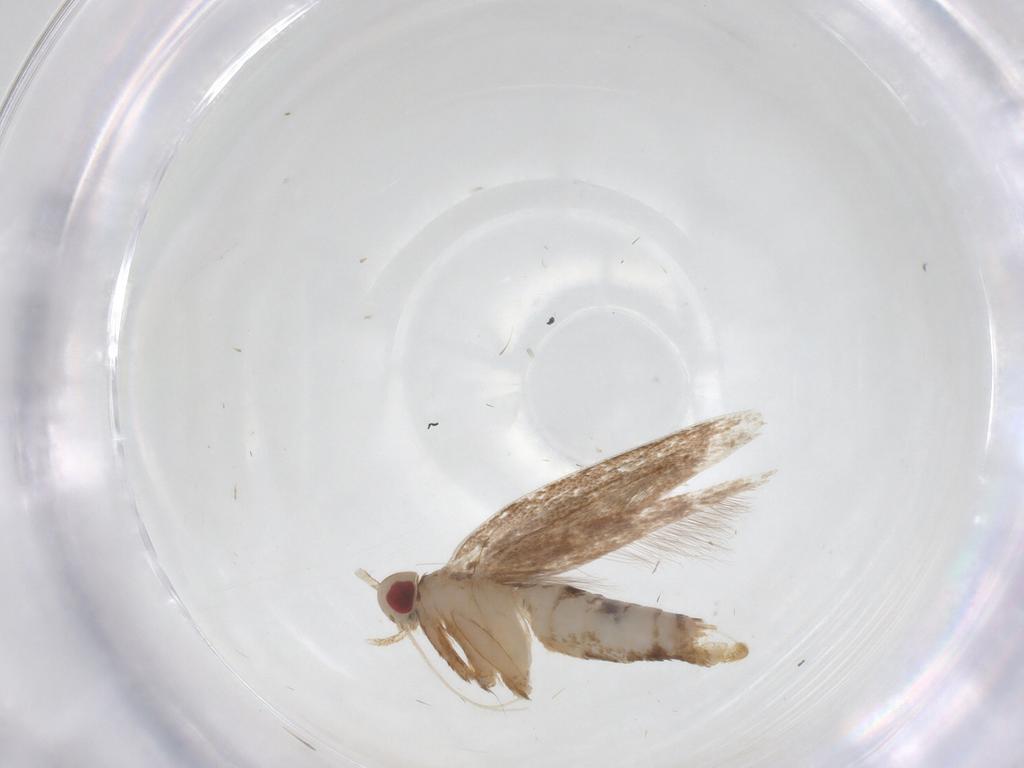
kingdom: Animalia
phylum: Arthropoda
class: Insecta
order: Lepidoptera
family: Cosmopterigidae
